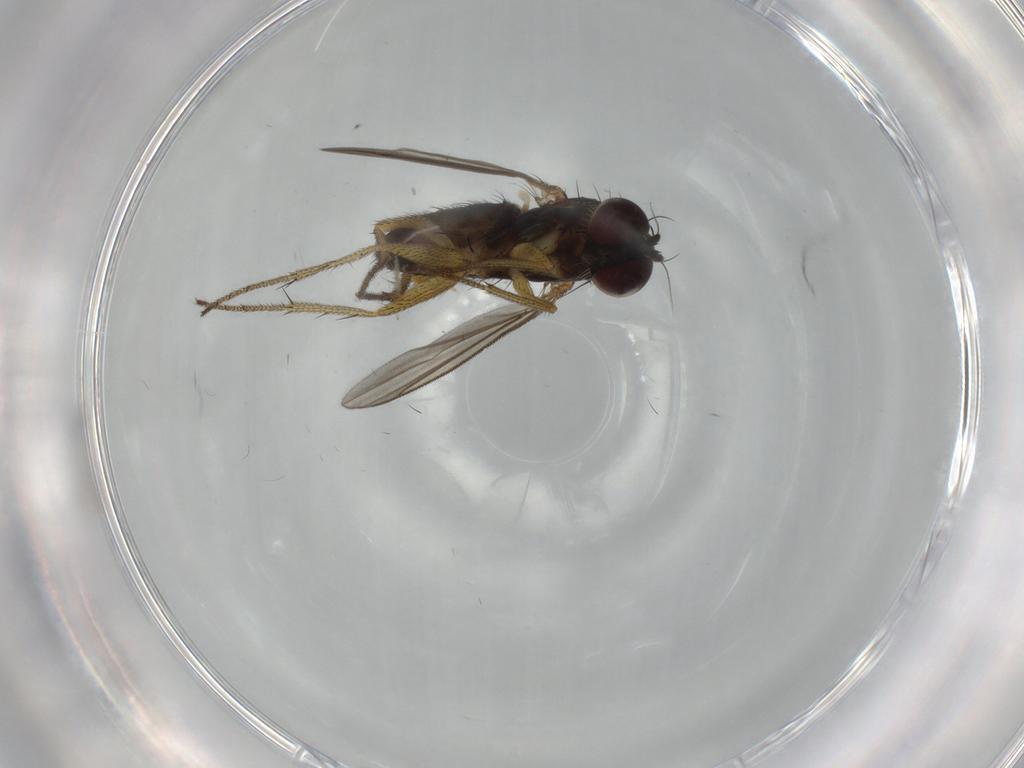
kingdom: Animalia
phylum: Arthropoda
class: Insecta
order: Diptera
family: Dolichopodidae
